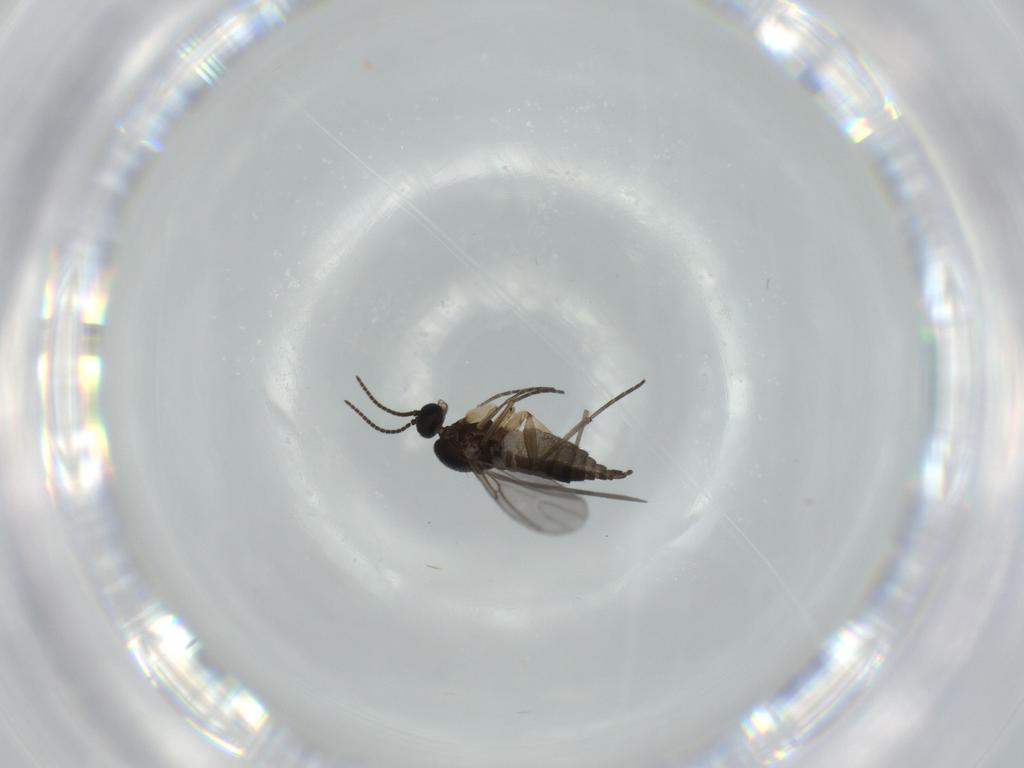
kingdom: Animalia
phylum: Arthropoda
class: Insecta
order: Diptera
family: Sciaridae
